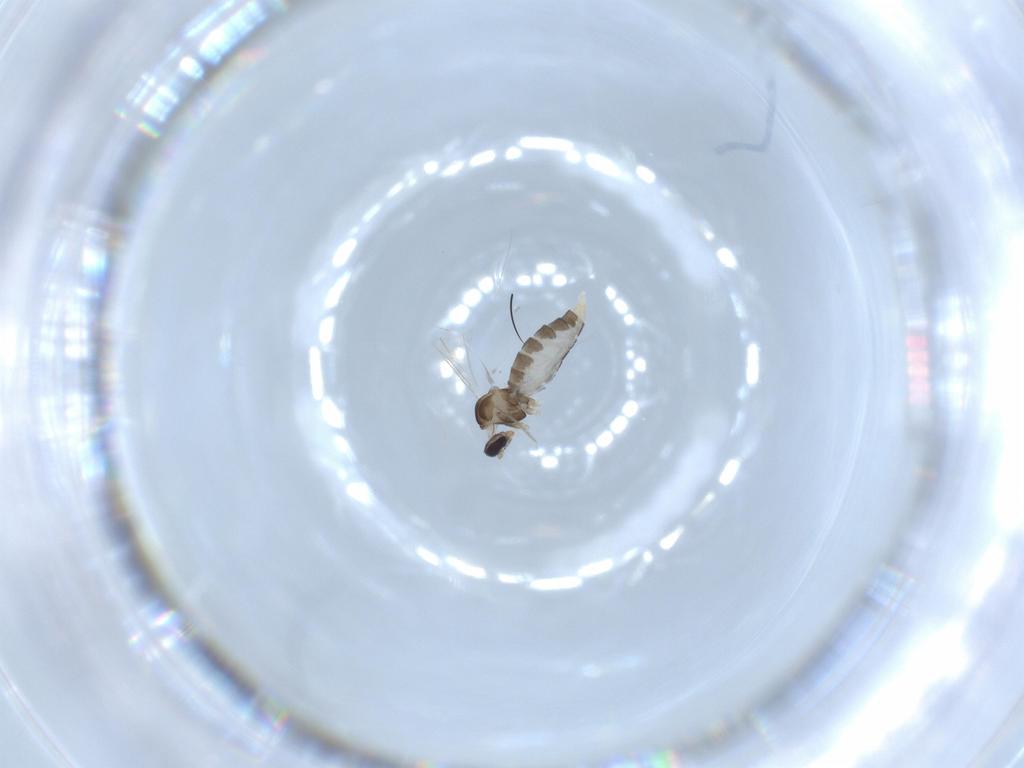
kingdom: Animalia
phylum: Arthropoda
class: Insecta
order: Diptera
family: Cecidomyiidae
